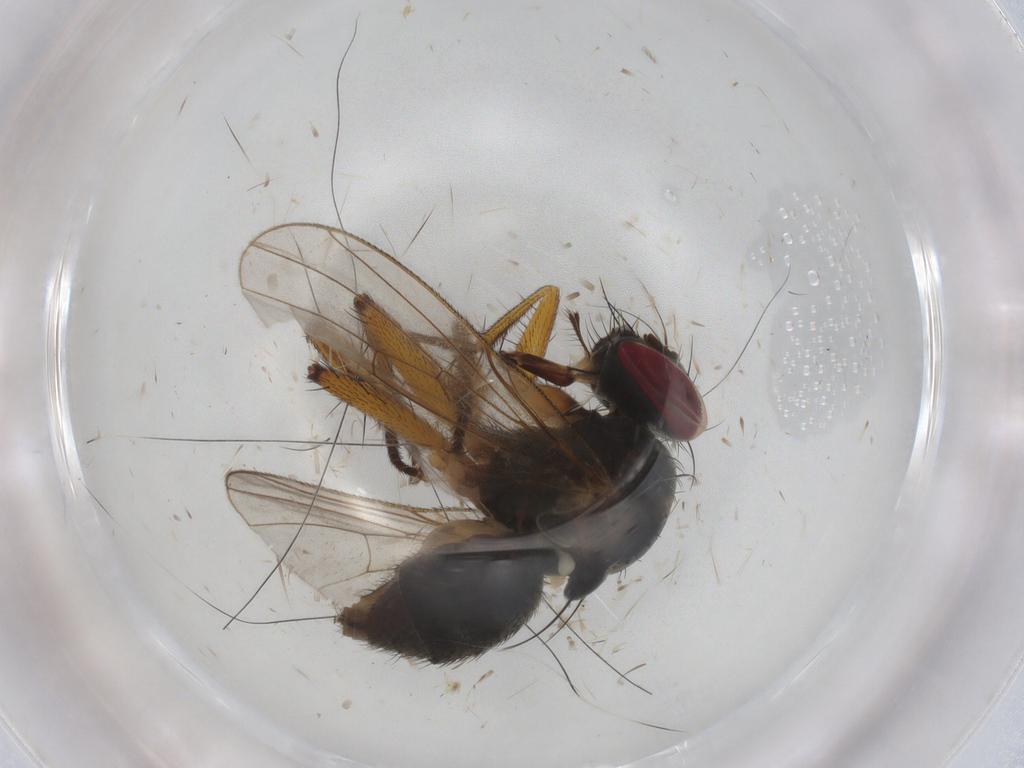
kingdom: Animalia
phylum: Arthropoda
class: Insecta
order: Diptera
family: Muscidae
